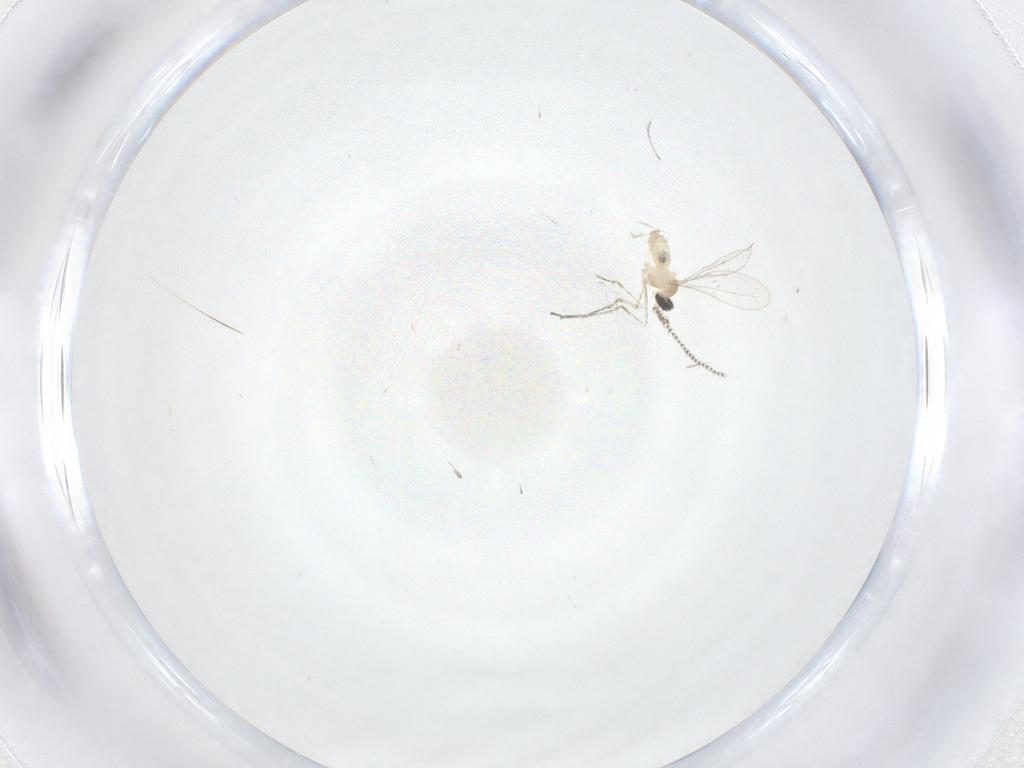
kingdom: Animalia
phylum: Arthropoda
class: Insecta
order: Diptera
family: Cecidomyiidae
